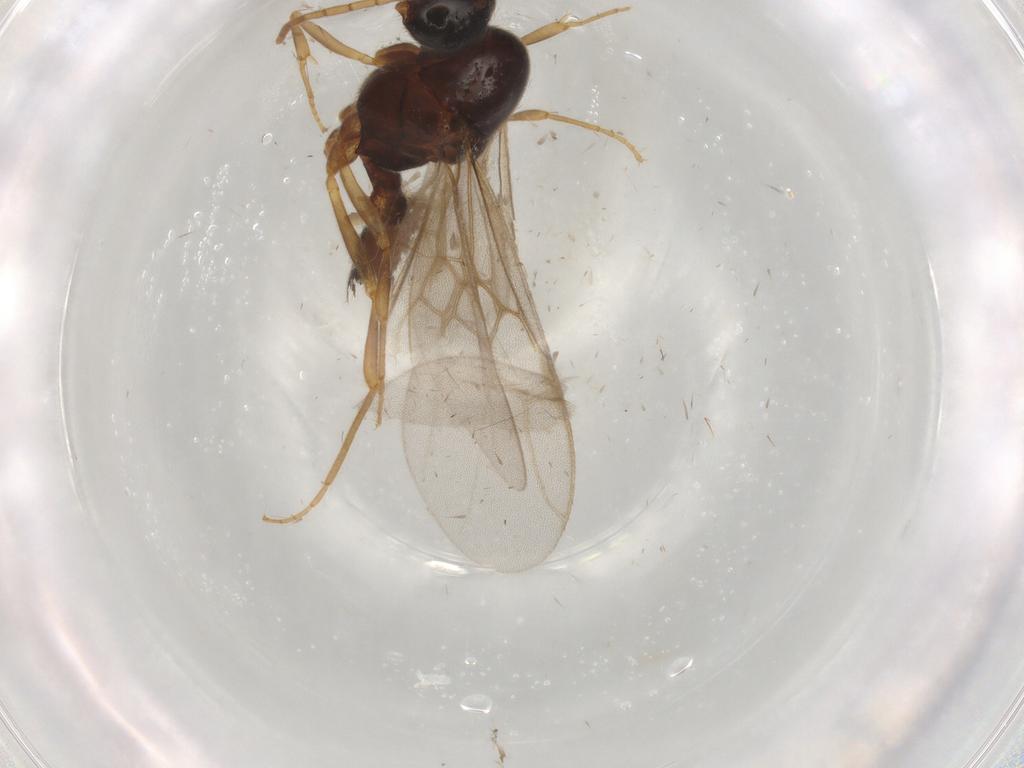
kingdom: Animalia
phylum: Arthropoda
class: Insecta
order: Hymenoptera
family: Formicidae
